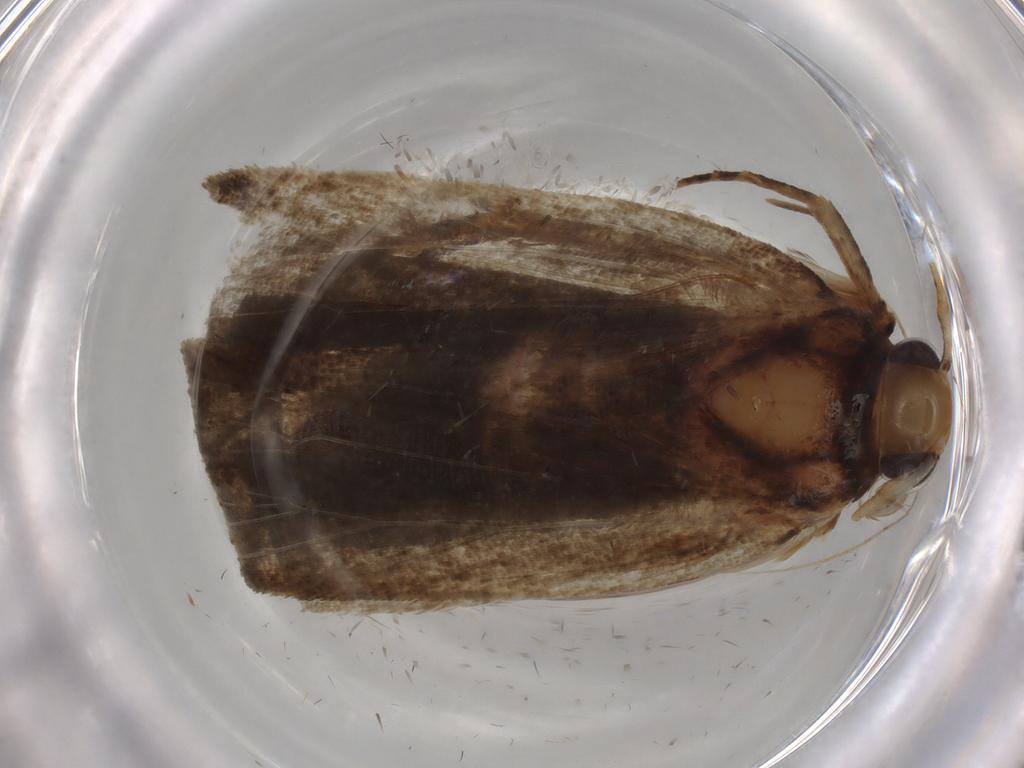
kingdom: Animalia
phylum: Arthropoda
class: Insecta
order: Lepidoptera
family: Autostichidae
